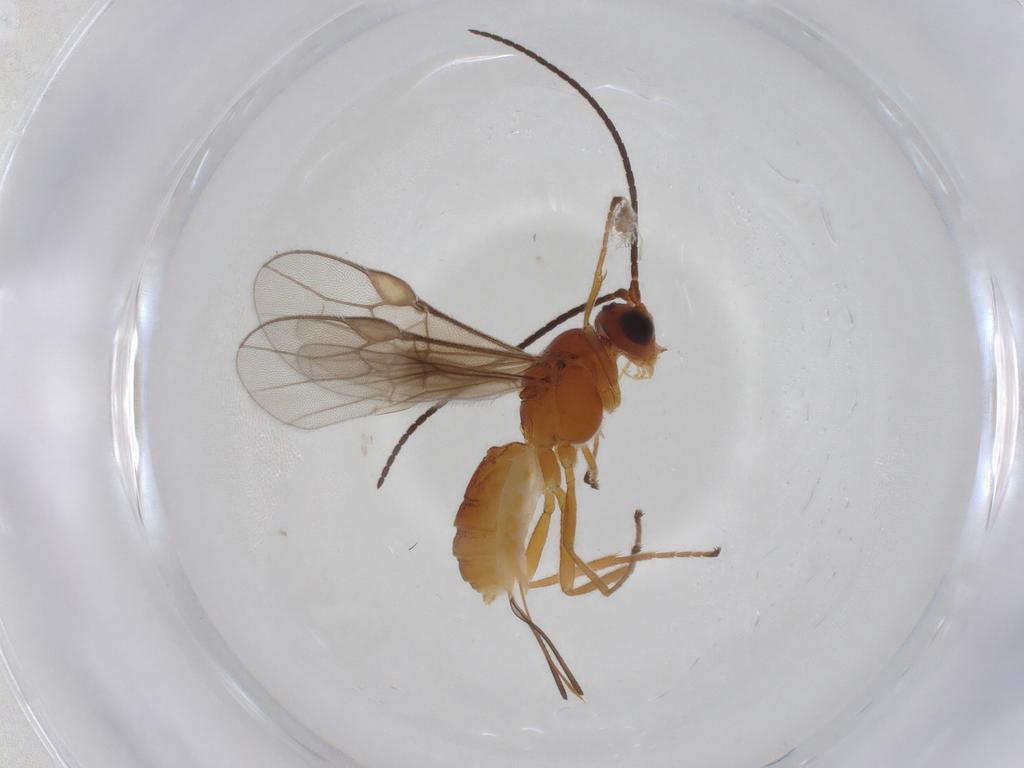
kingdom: Animalia
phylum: Arthropoda
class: Insecta
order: Hymenoptera
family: Braconidae
